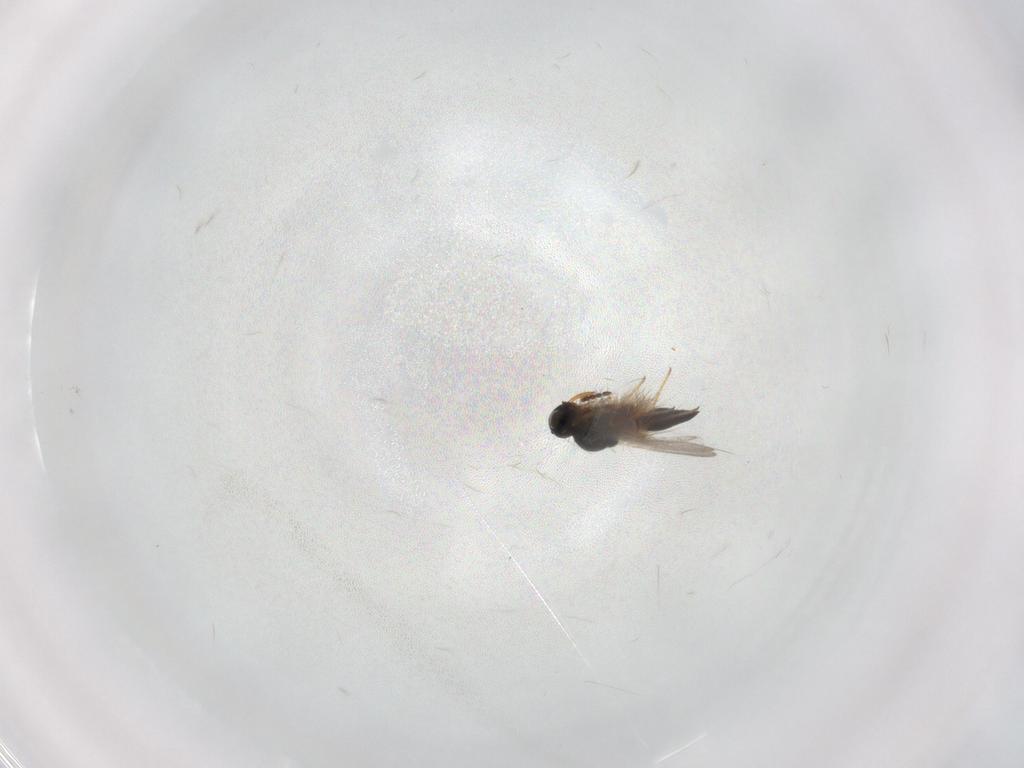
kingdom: Animalia
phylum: Arthropoda
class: Insecta
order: Hymenoptera
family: Platygastridae
